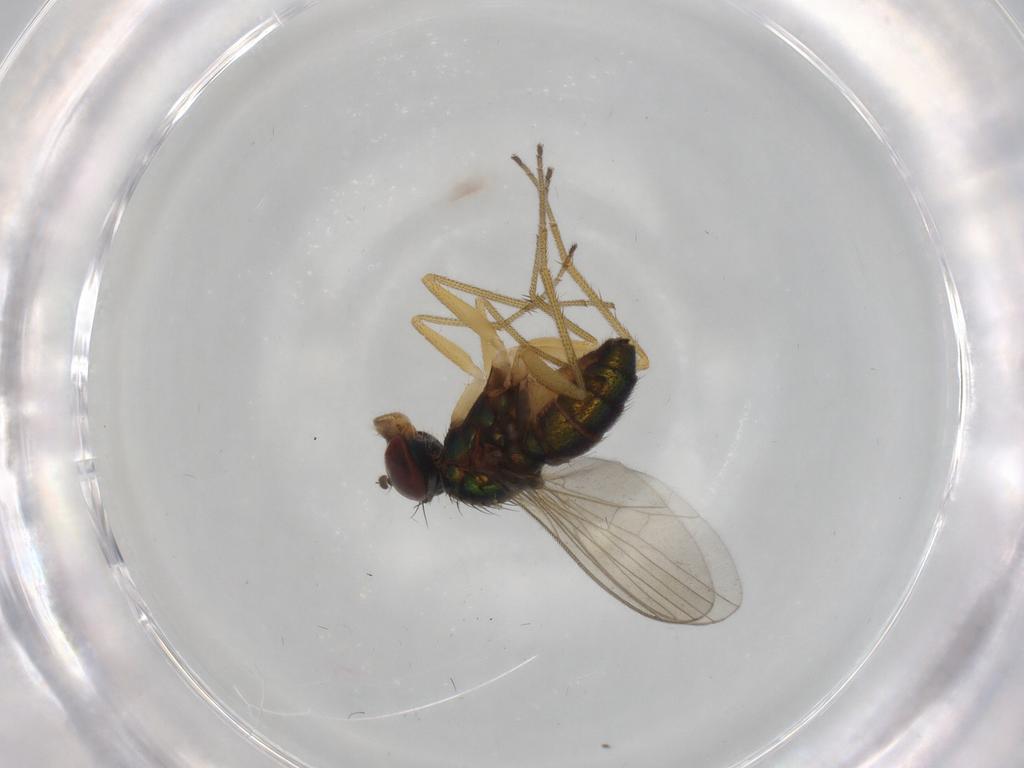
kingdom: Animalia
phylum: Arthropoda
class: Insecta
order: Diptera
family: Dolichopodidae
